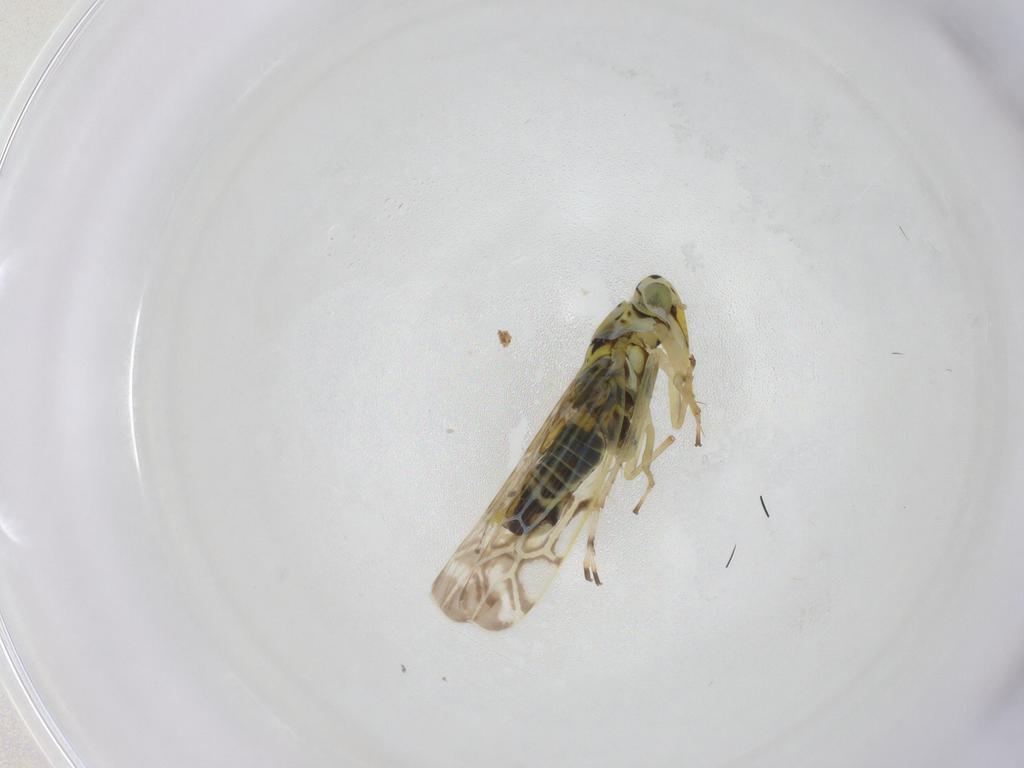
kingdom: Animalia
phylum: Arthropoda
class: Insecta
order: Hemiptera
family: Cicadellidae
